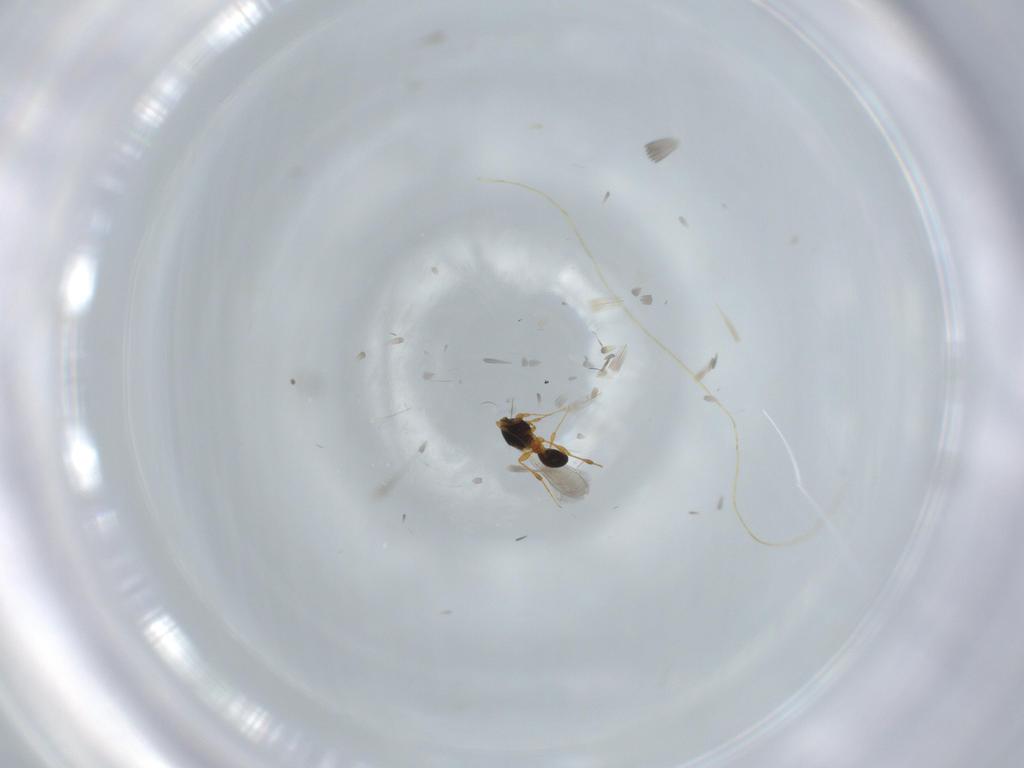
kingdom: Animalia
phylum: Arthropoda
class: Insecta
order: Hymenoptera
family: Platygastridae
